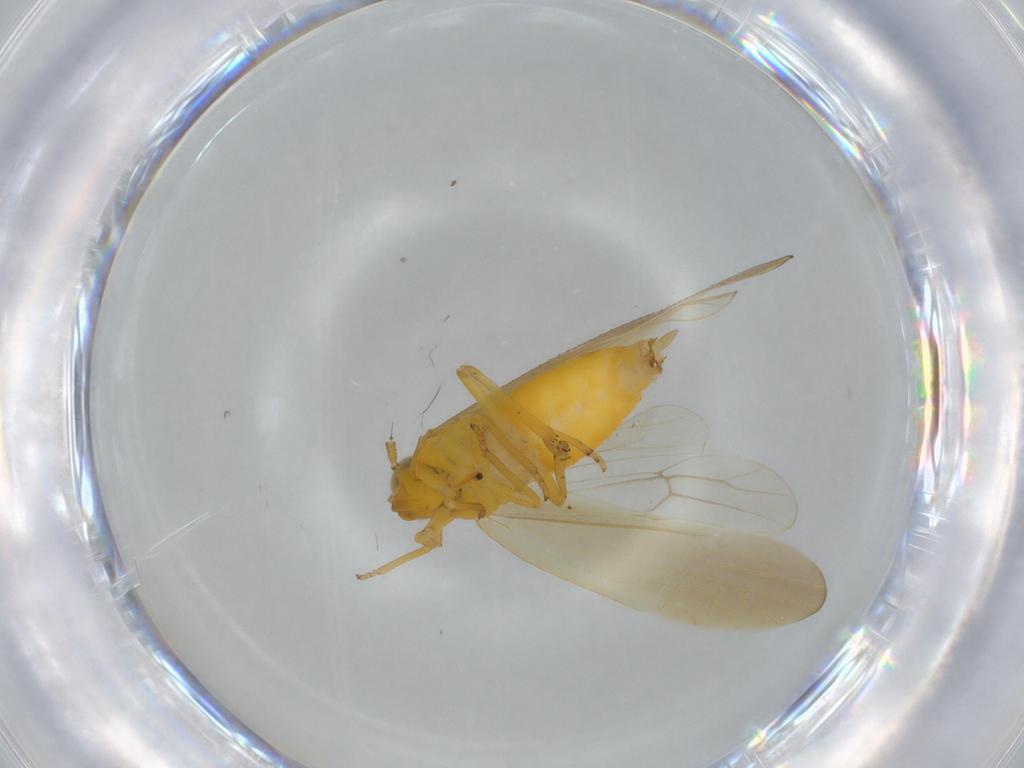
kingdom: Animalia
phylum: Arthropoda
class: Insecta
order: Hemiptera
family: Delphacidae
